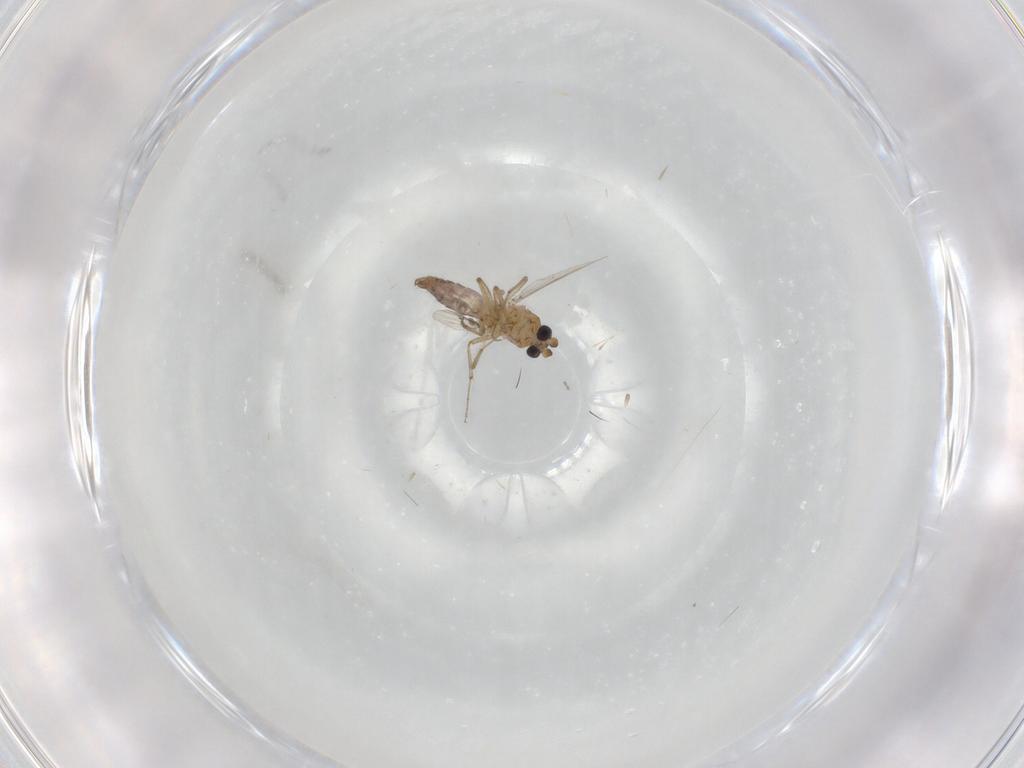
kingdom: Animalia
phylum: Arthropoda
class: Insecta
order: Diptera
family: Ceratopogonidae
